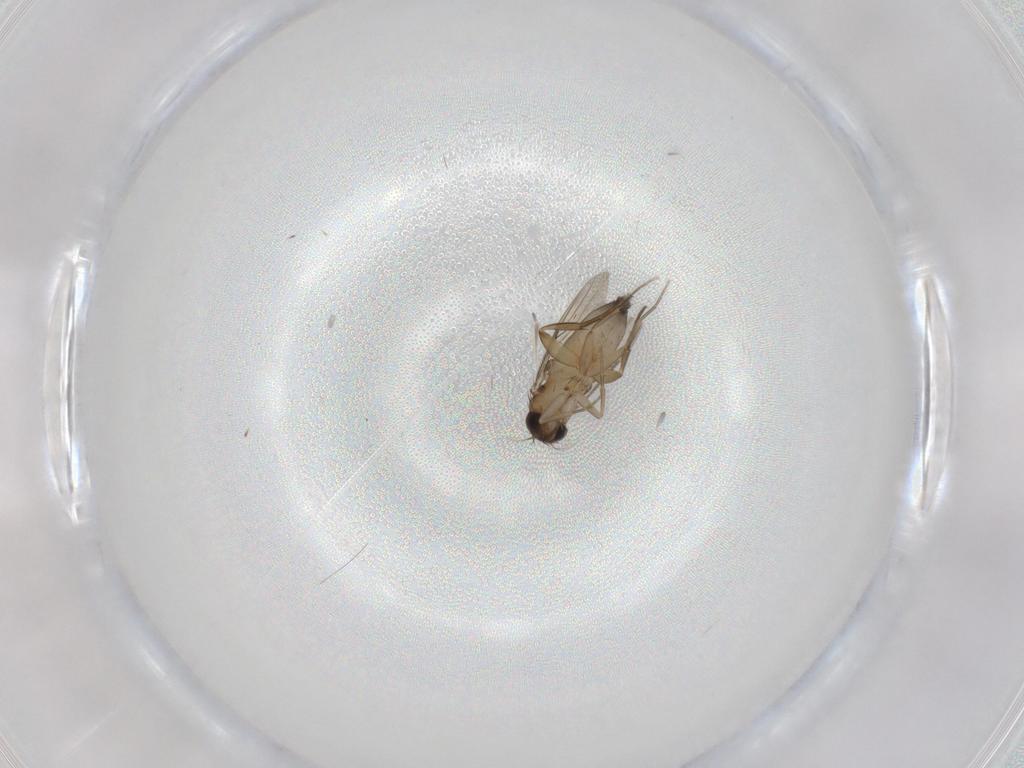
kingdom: Animalia
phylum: Arthropoda
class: Insecta
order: Diptera
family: Phoridae
